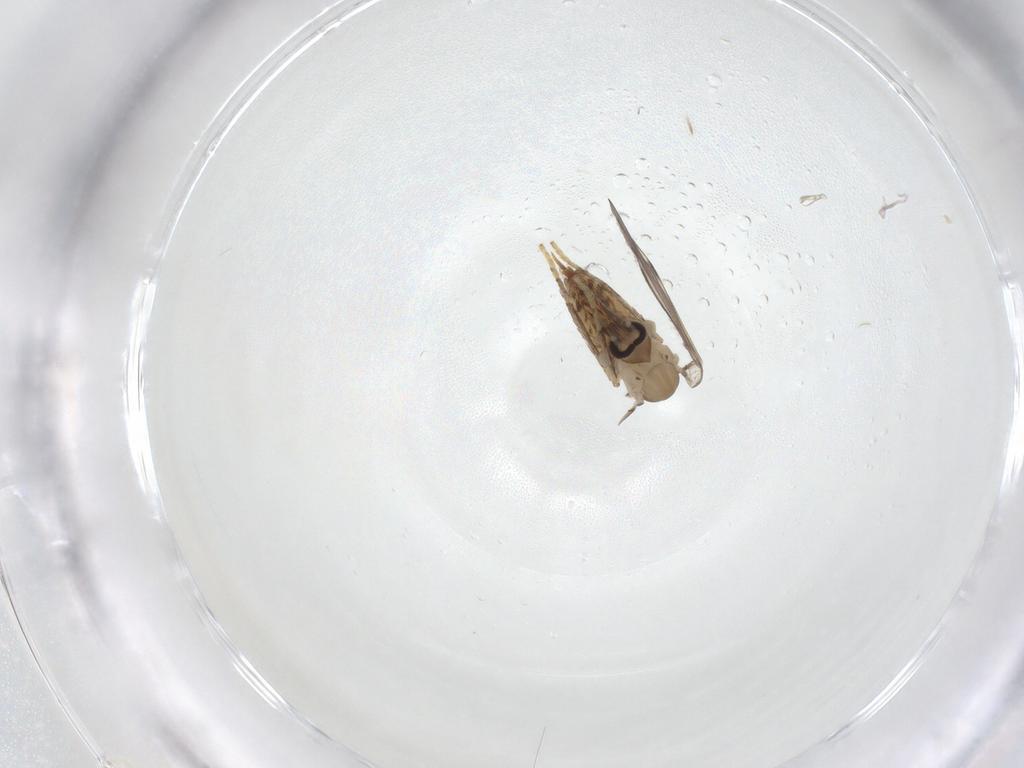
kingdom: Animalia
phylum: Arthropoda
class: Insecta
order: Diptera
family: Psychodidae
